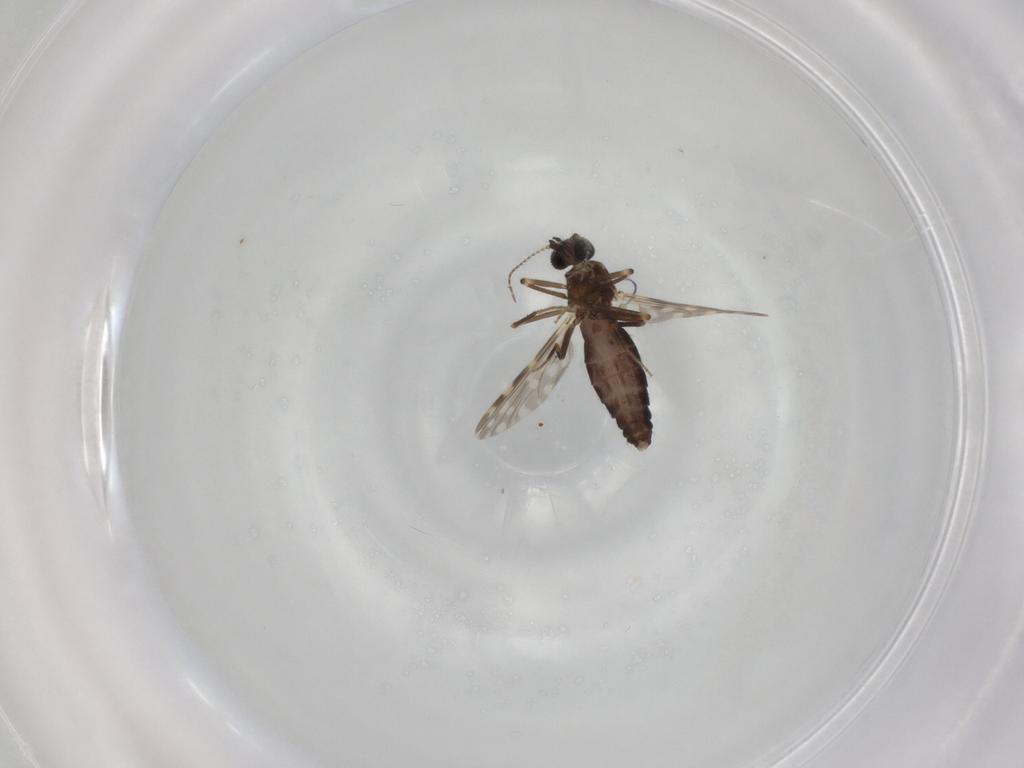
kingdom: Animalia
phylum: Arthropoda
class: Insecta
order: Diptera
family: Ceratopogonidae
